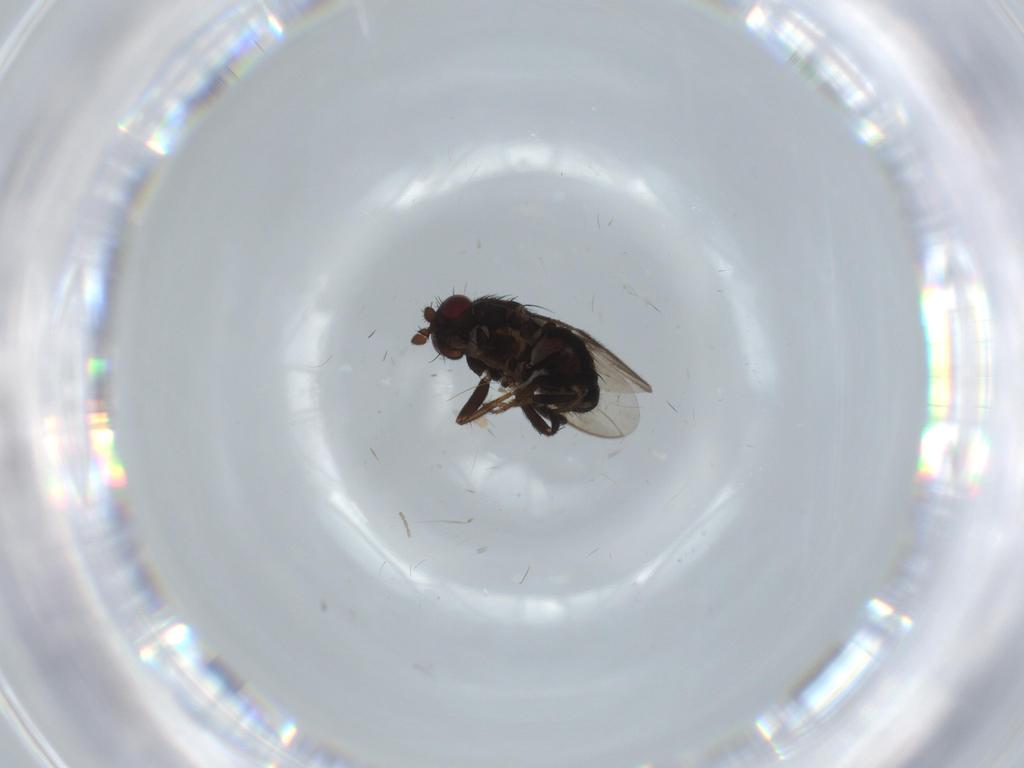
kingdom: Animalia
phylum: Arthropoda
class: Insecta
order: Diptera
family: Sphaeroceridae
